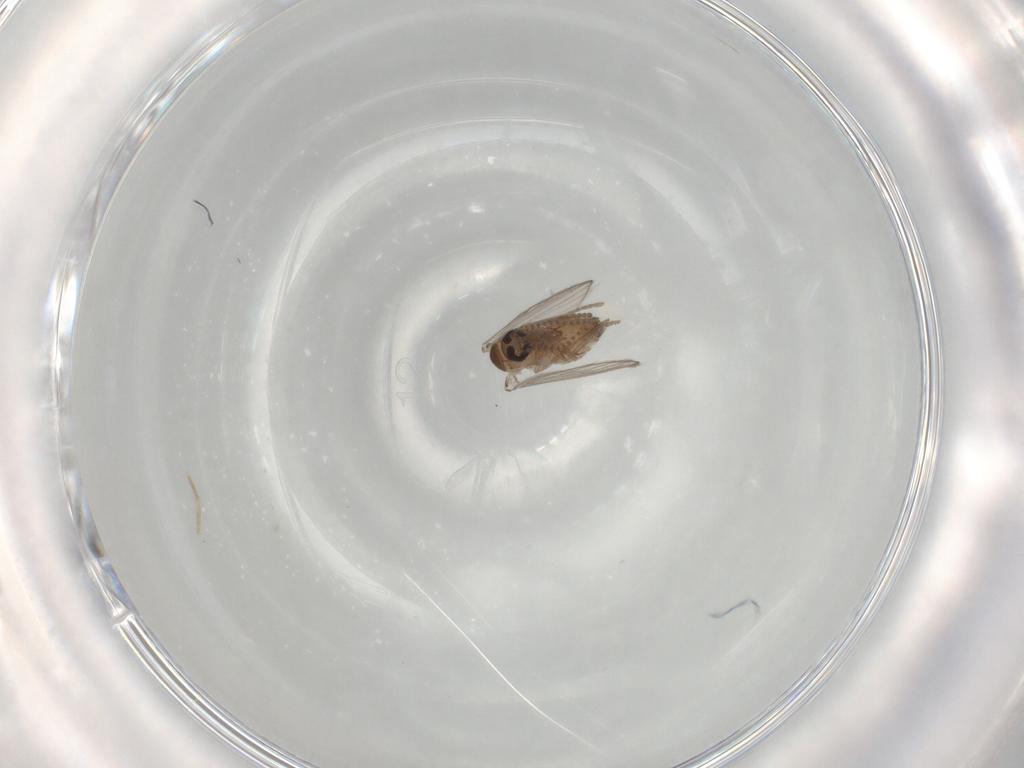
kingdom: Animalia
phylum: Arthropoda
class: Insecta
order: Diptera
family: Psychodidae
